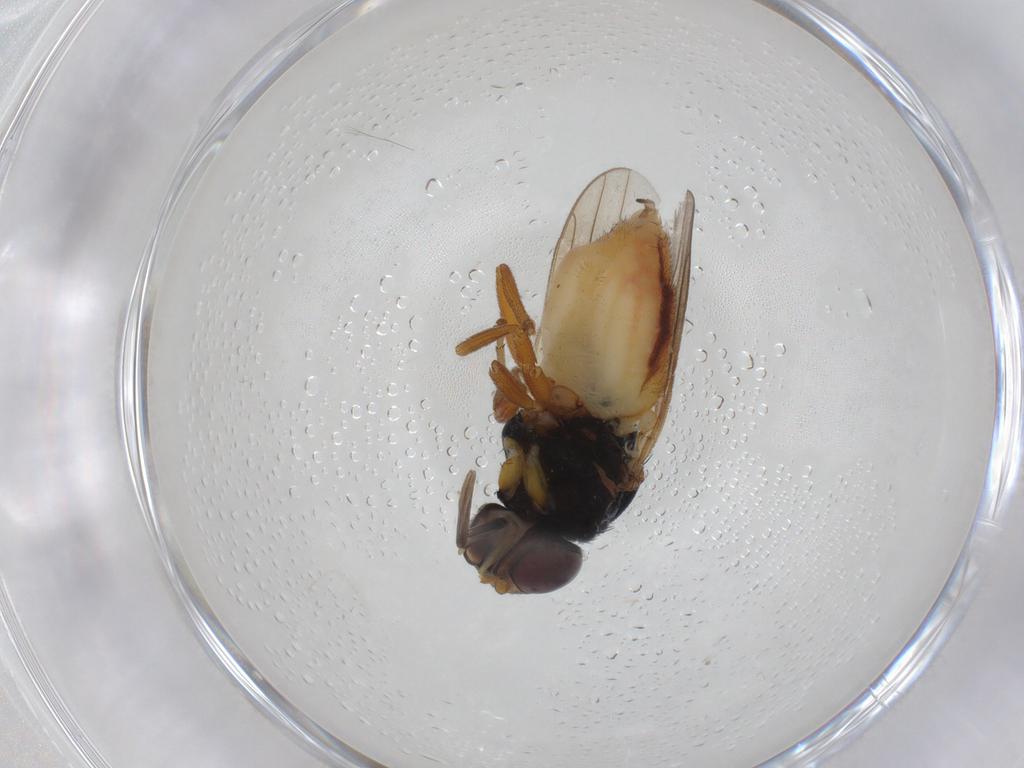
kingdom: Animalia
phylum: Arthropoda
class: Insecta
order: Diptera
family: Chloropidae
